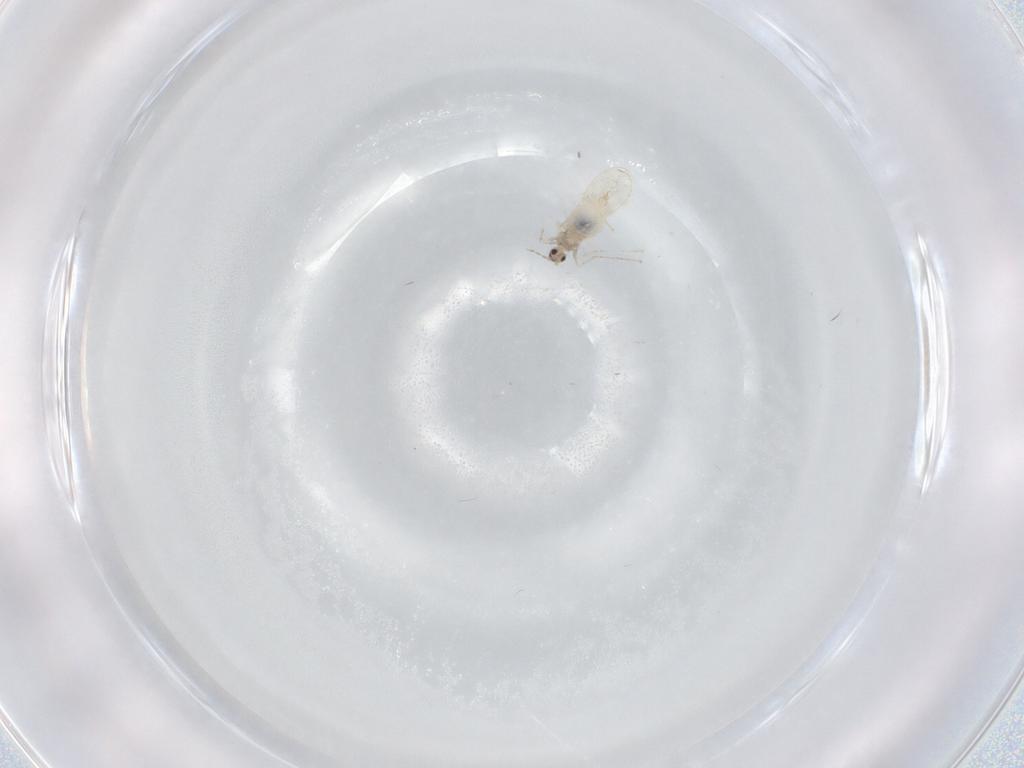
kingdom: Animalia
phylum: Arthropoda
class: Insecta
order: Diptera
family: Cecidomyiidae
